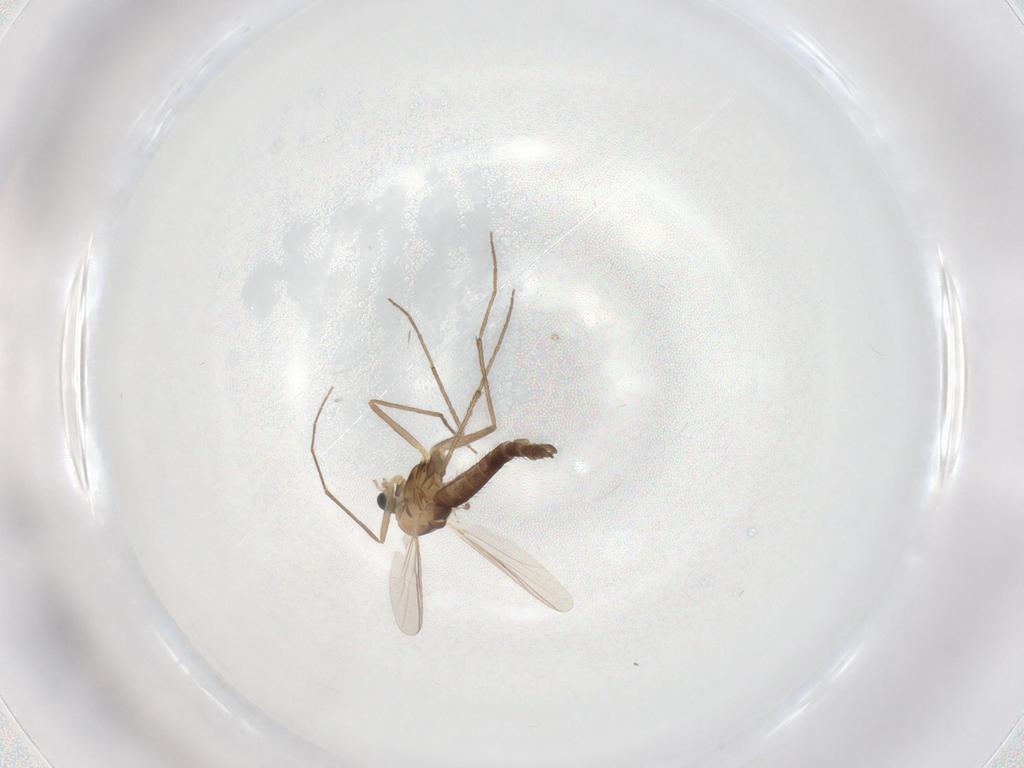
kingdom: Animalia
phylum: Arthropoda
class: Insecta
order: Diptera
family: Chironomidae
